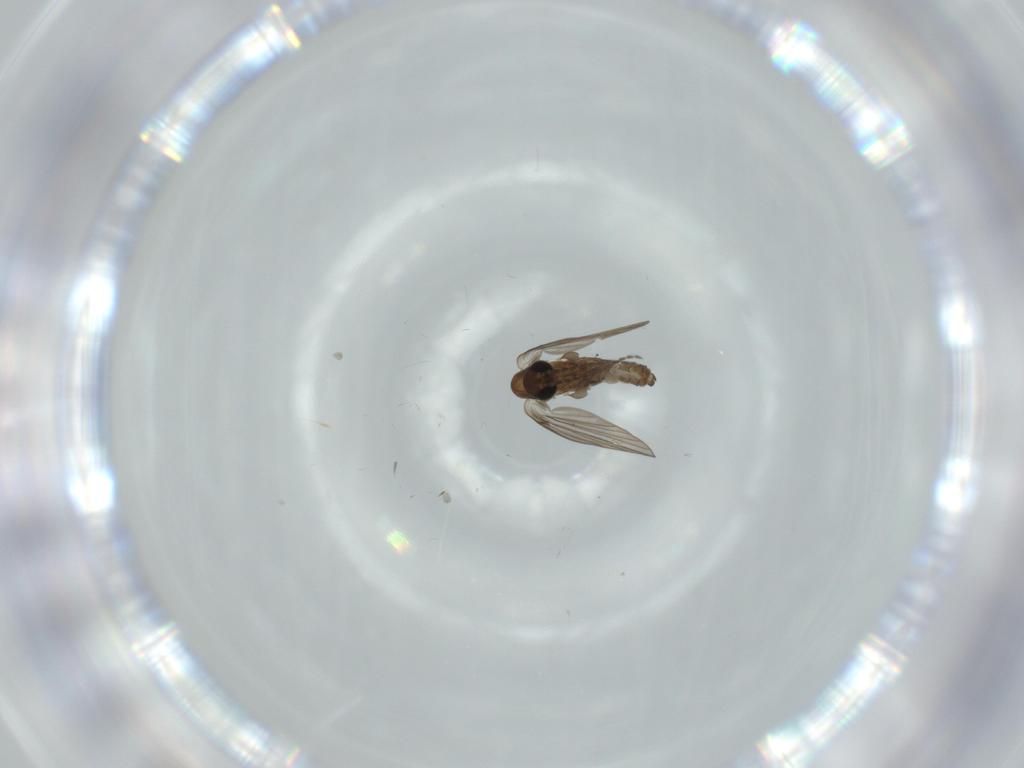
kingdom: Animalia
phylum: Arthropoda
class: Insecta
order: Diptera
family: Psychodidae
